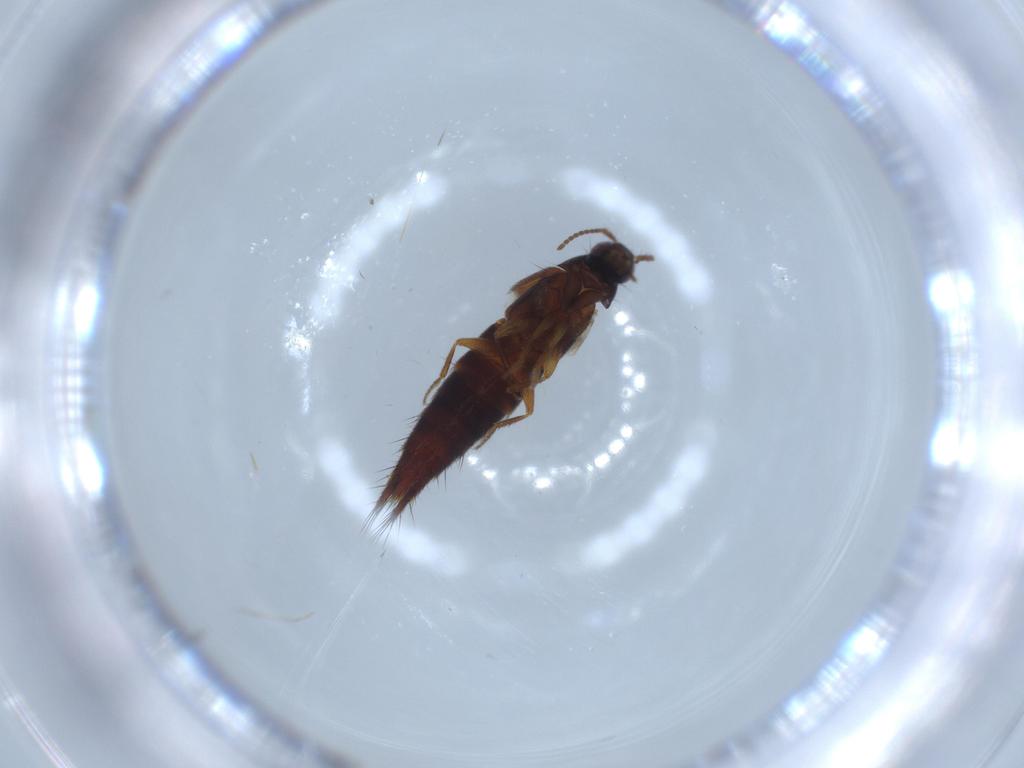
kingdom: Animalia
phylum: Arthropoda
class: Insecta
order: Coleoptera
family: Staphylinidae
